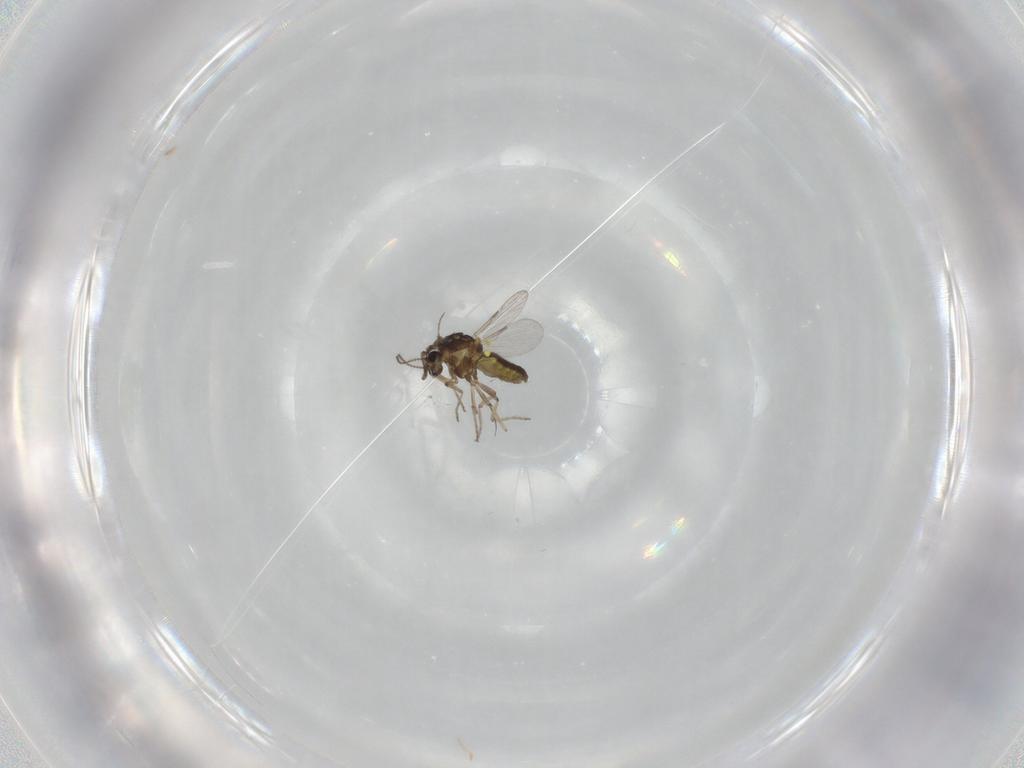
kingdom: Animalia
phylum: Arthropoda
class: Insecta
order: Diptera
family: Ceratopogonidae
